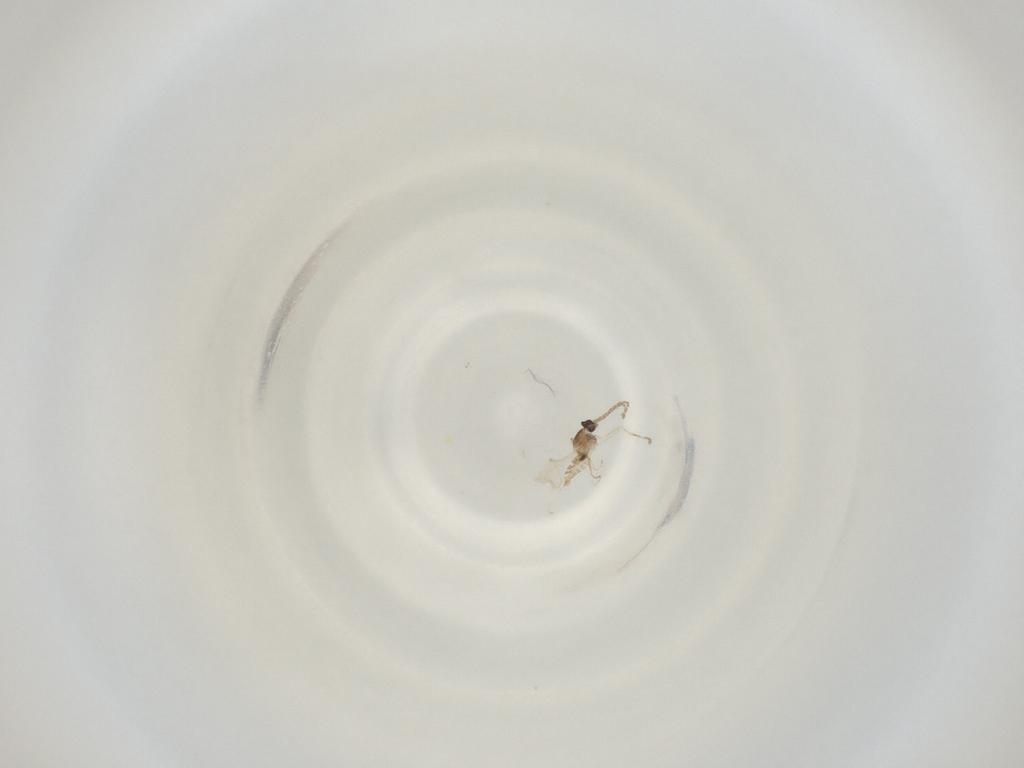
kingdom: Animalia
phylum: Arthropoda
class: Insecta
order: Diptera
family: Cecidomyiidae
